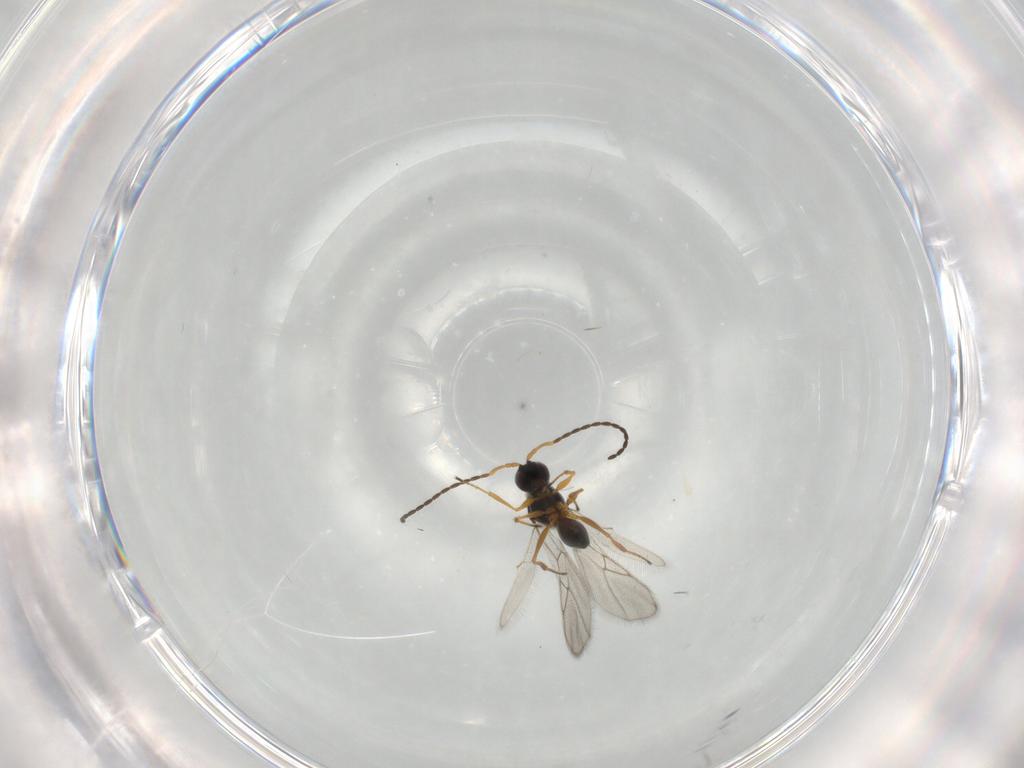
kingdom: Animalia
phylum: Arthropoda
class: Insecta
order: Hymenoptera
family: Figitidae
